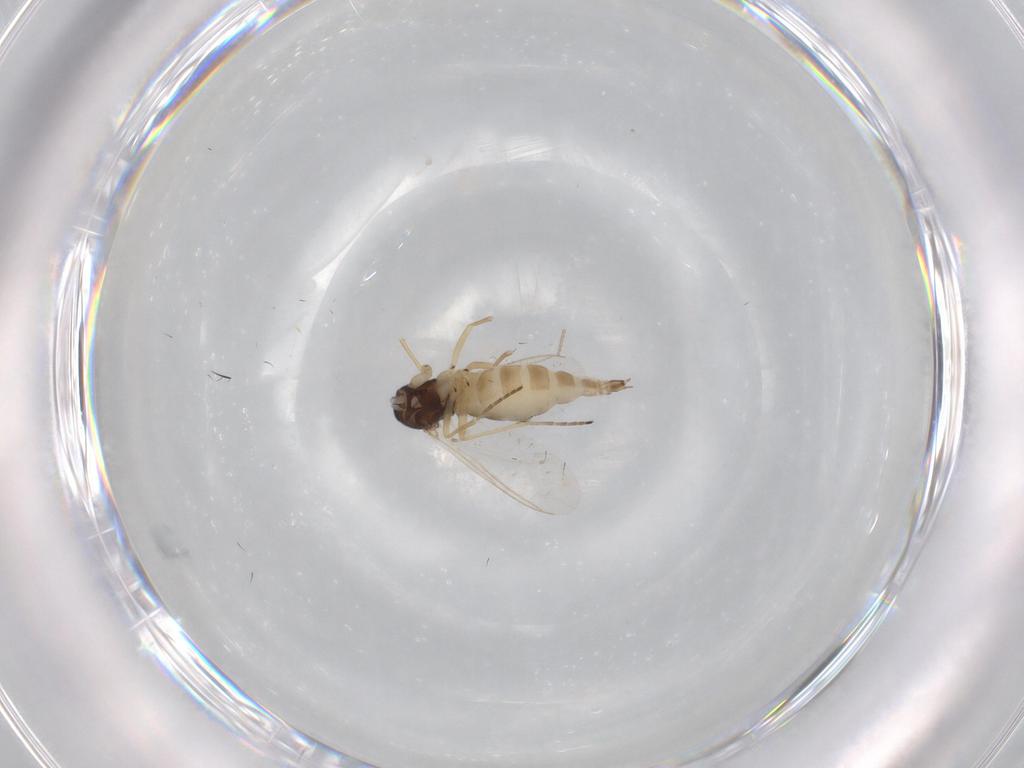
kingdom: Animalia
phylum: Arthropoda
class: Insecta
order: Diptera
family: Sciaridae
